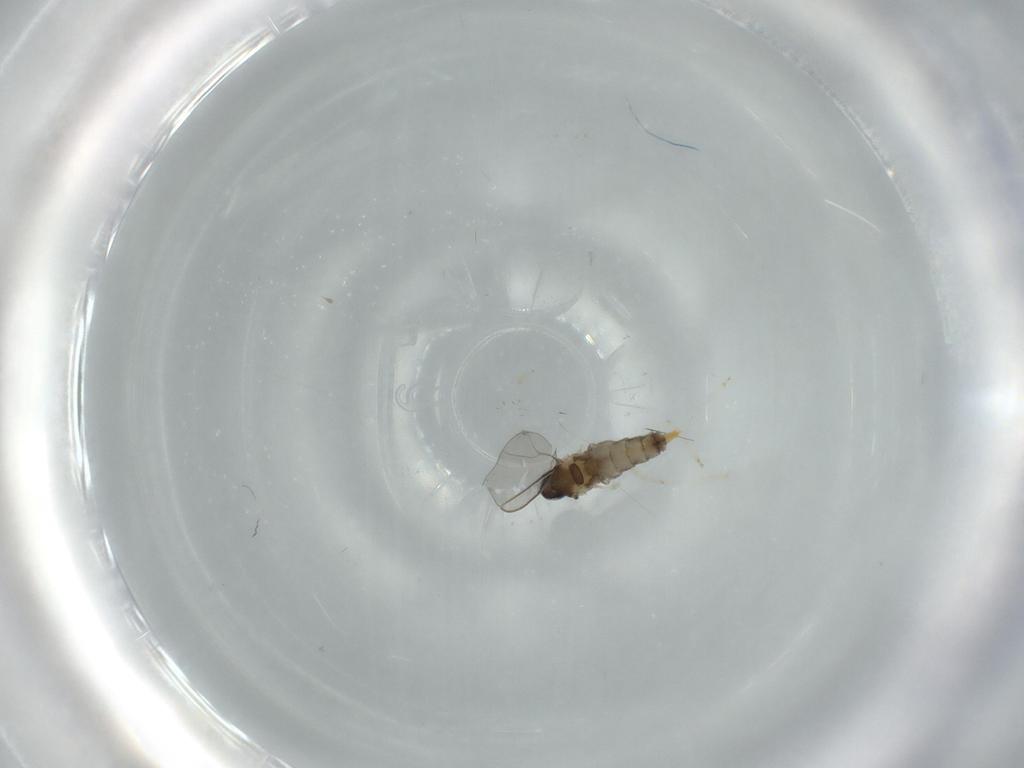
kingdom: Animalia
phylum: Arthropoda
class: Insecta
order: Diptera
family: Cecidomyiidae
